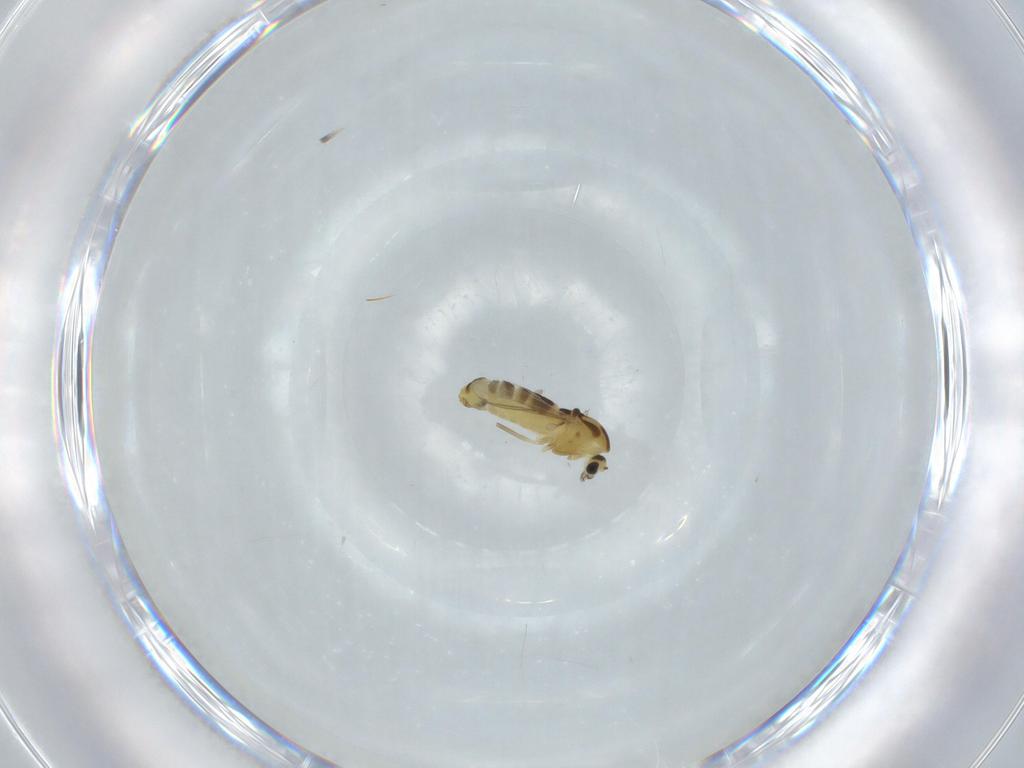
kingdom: Animalia
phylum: Arthropoda
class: Insecta
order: Diptera
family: Chironomidae
